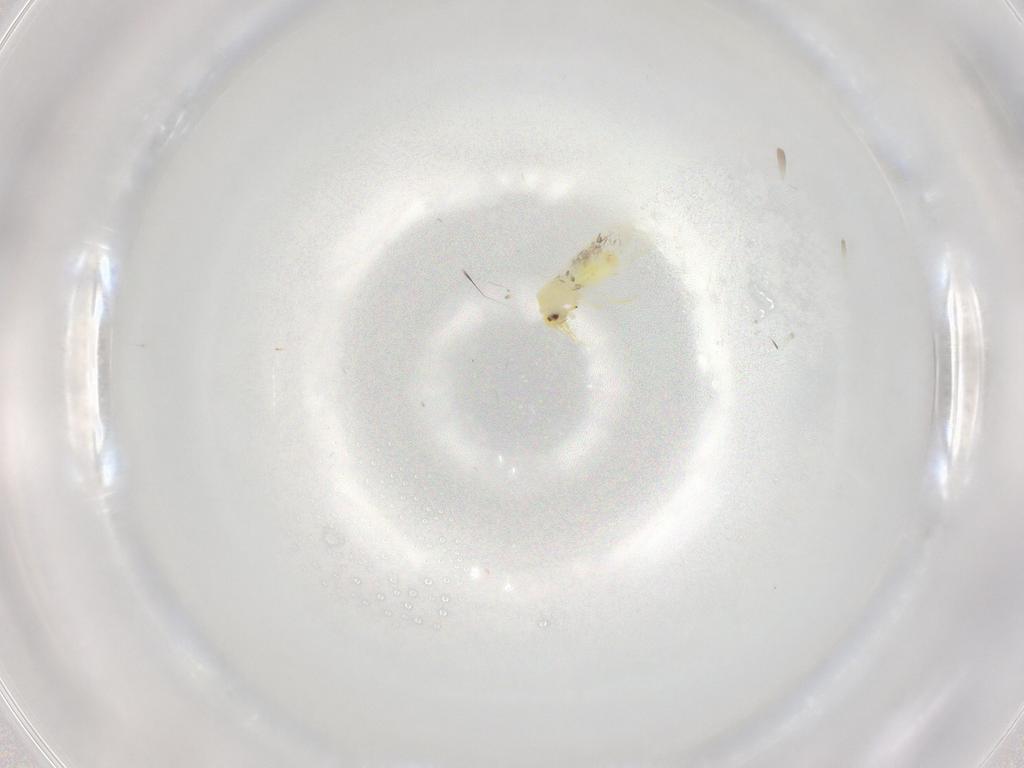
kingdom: Animalia
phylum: Arthropoda
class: Insecta
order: Hemiptera
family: Aleyrodidae
